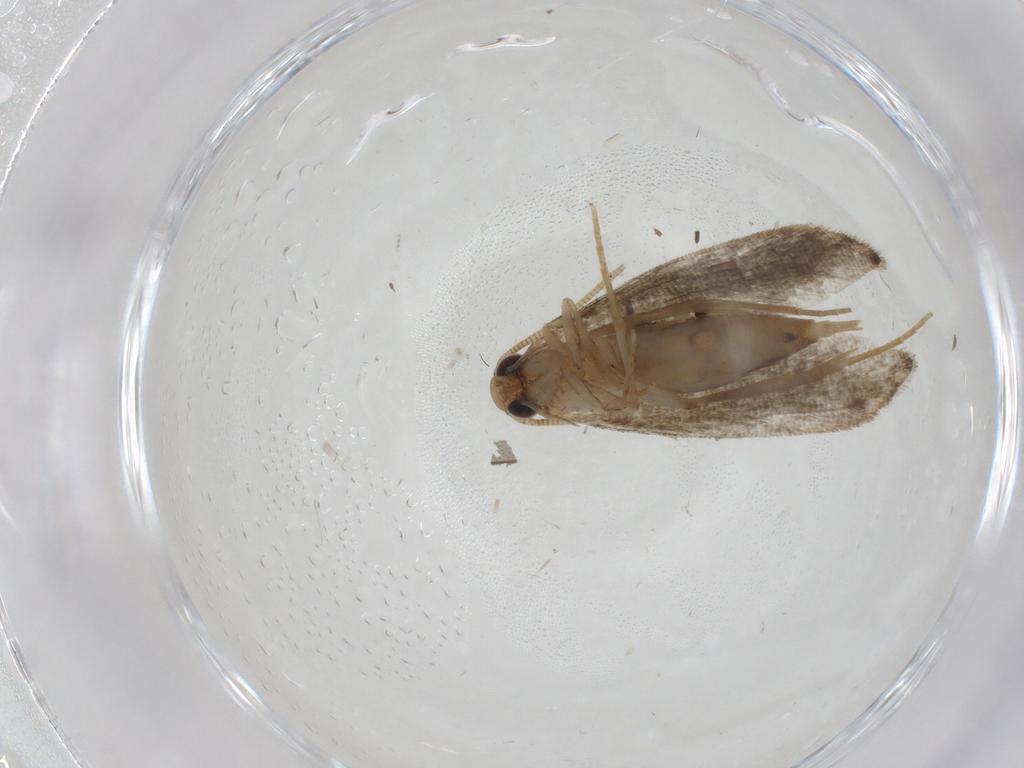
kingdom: Animalia
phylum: Arthropoda
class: Insecta
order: Lepidoptera
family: Tineidae
